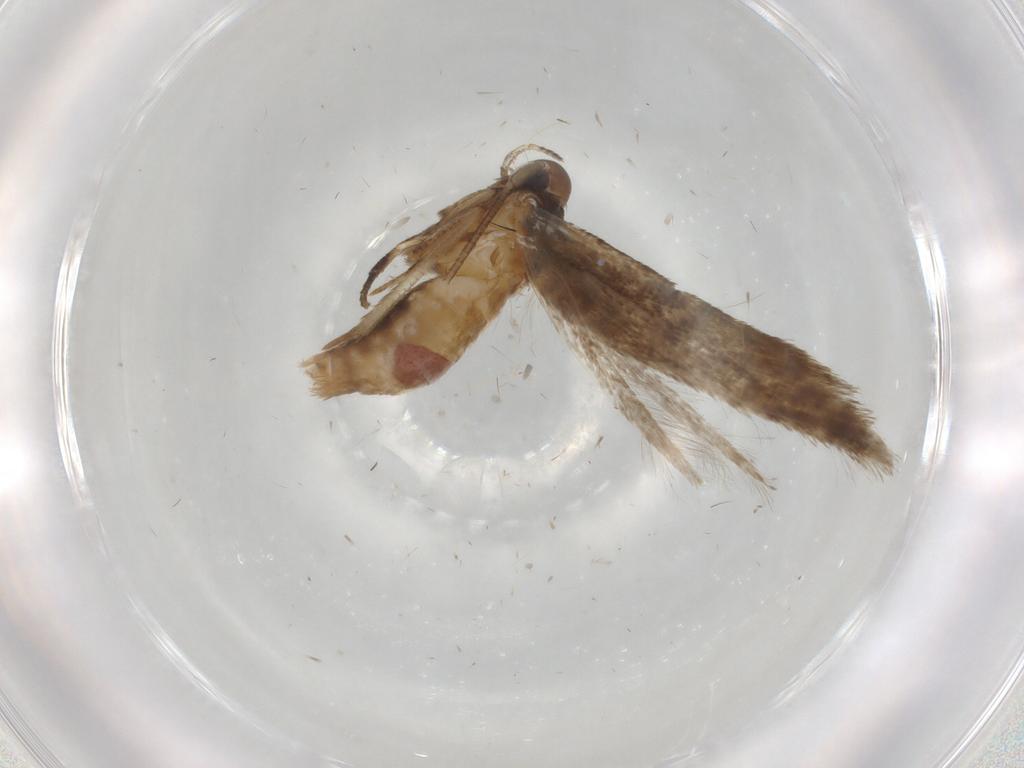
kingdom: Animalia
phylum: Arthropoda
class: Insecta
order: Lepidoptera
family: Cosmopterigidae
